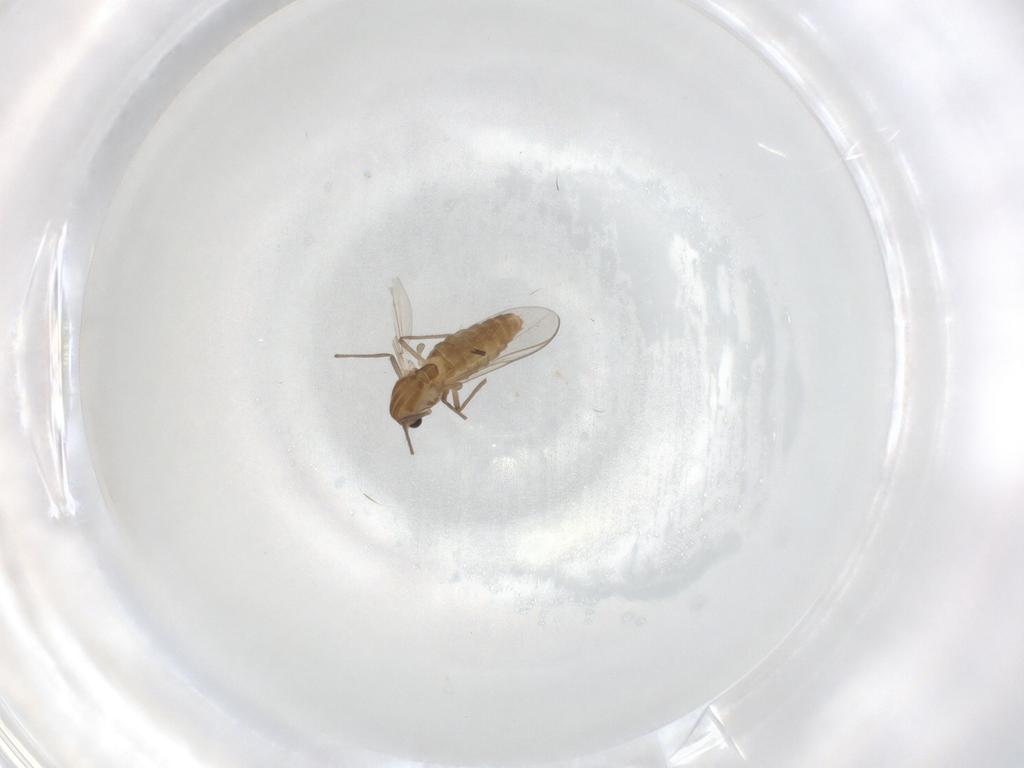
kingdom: Animalia
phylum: Arthropoda
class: Insecta
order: Diptera
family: Chironomidae
